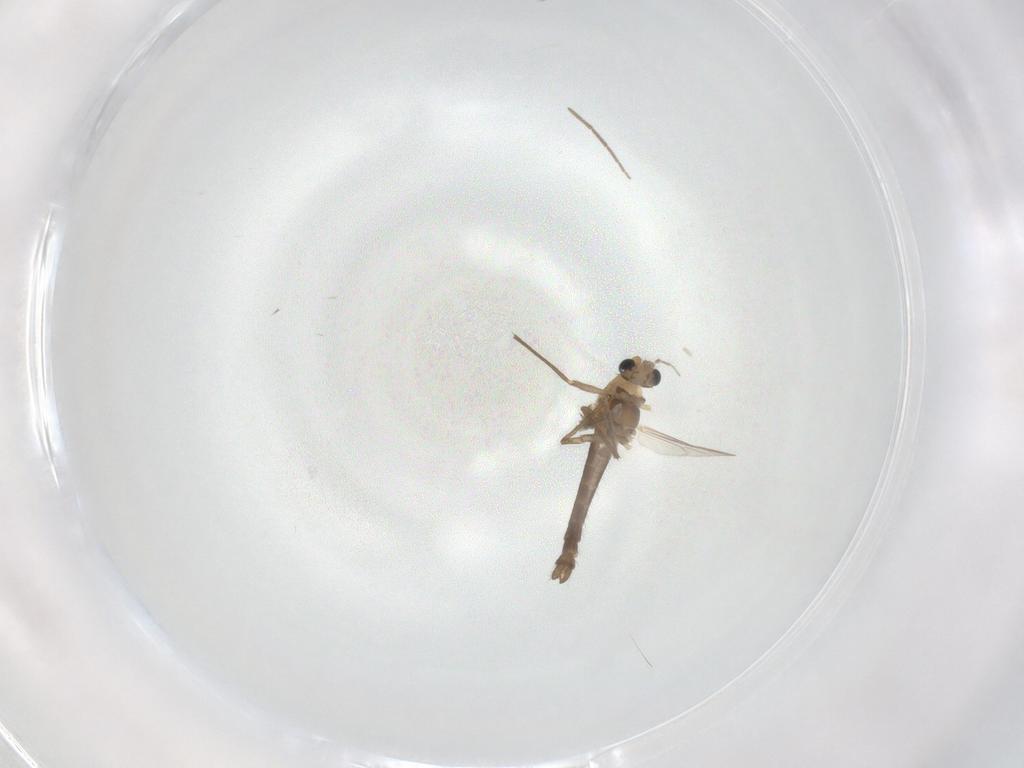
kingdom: Animalia
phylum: Arthropoda
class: Insecta
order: Diptera
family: Chironomidae
